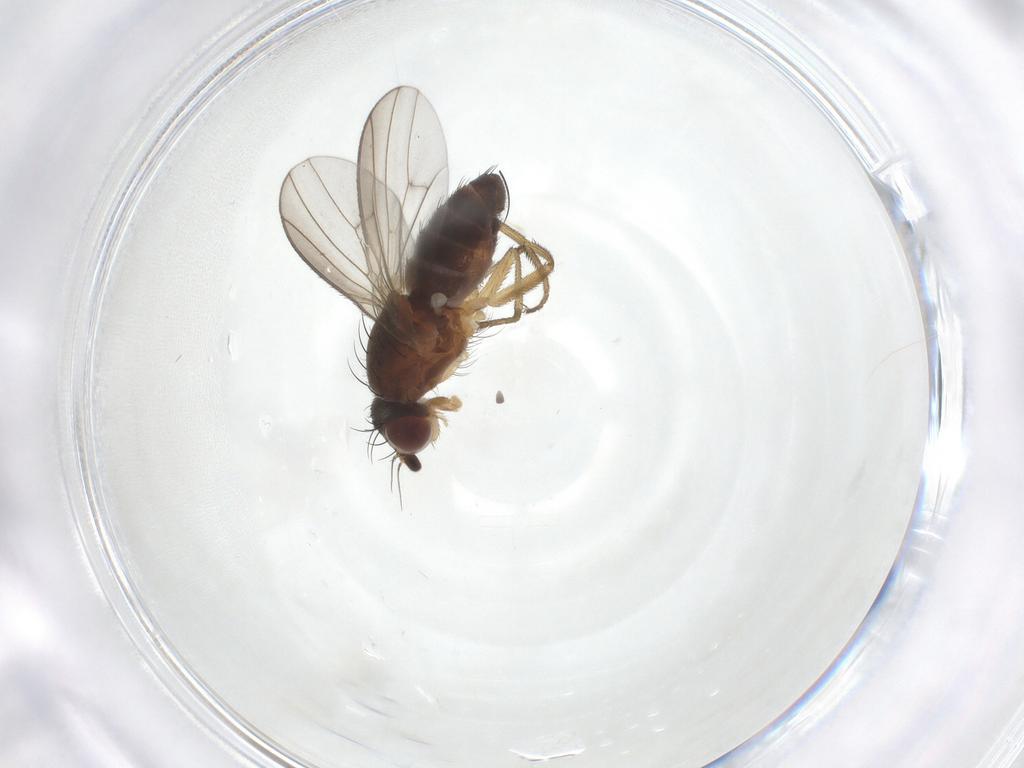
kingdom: Animalia
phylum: Arthropoda
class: Insecta
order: Diptera
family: Heleomyzidae
